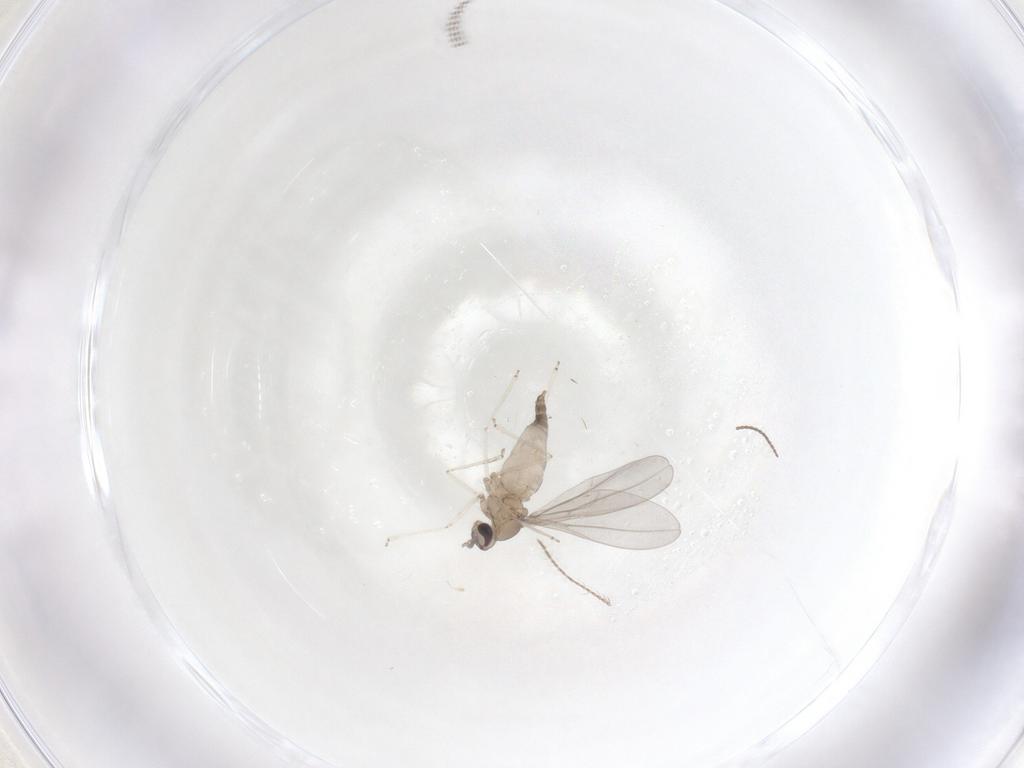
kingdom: Animalia
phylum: Arthropoda
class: Insecta
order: Diptera
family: Cecidomyiidae
